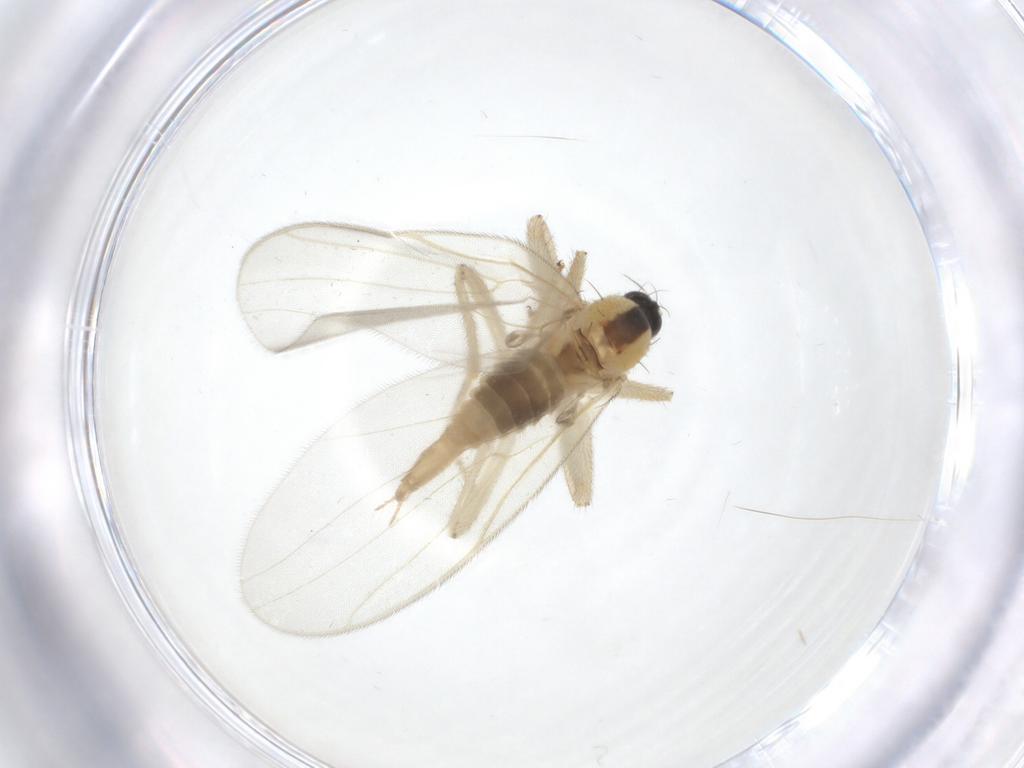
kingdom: Animalia
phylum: Arthropoda
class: Insecta
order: Diptera
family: Hybotidae
